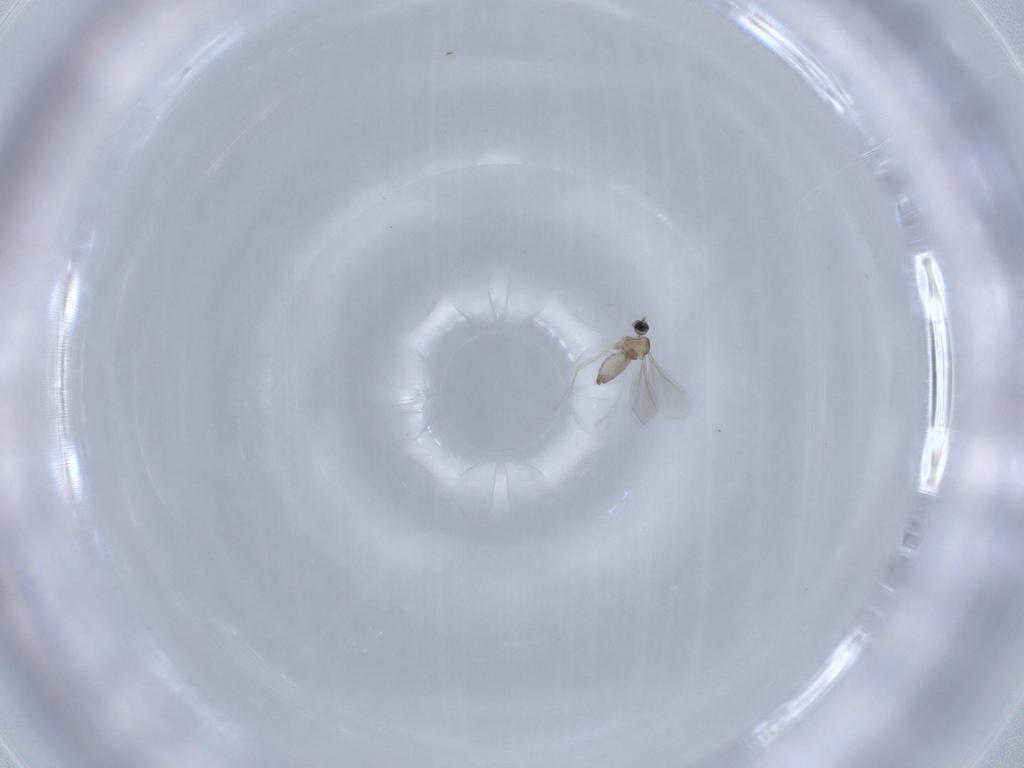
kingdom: Animalia
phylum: Arthropoda
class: Insecta
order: Diptera
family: Cecidomyiidae
